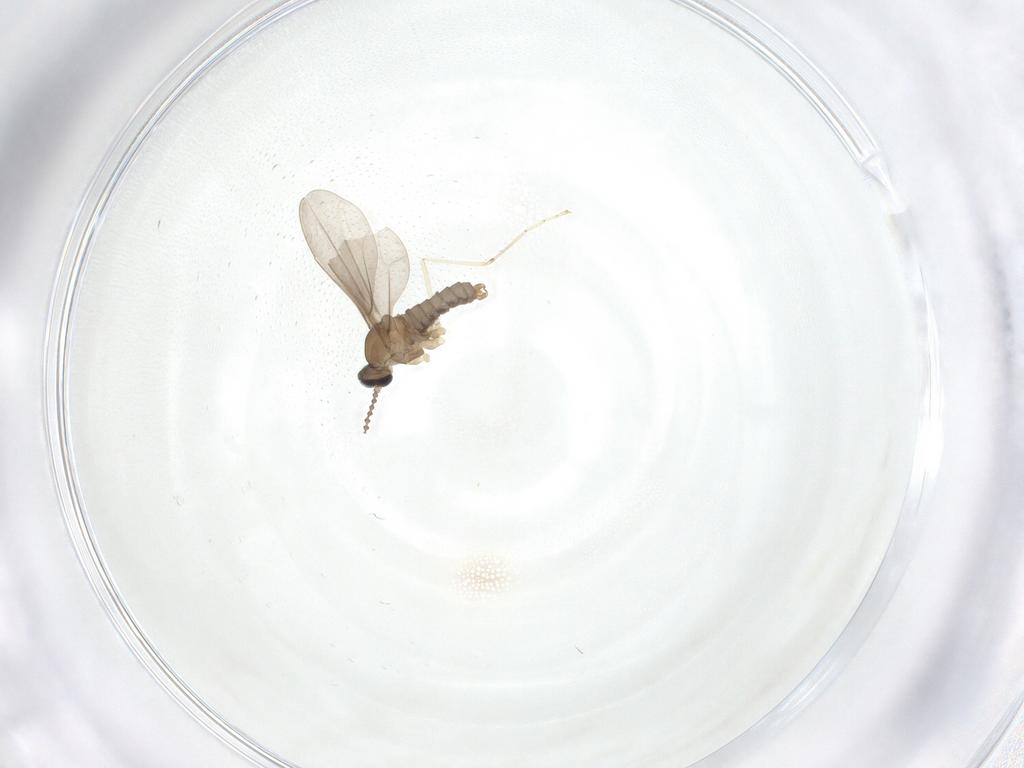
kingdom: Animalia
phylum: Arthropoda
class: Insecta
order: Diptera
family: Cecidomyiidae
